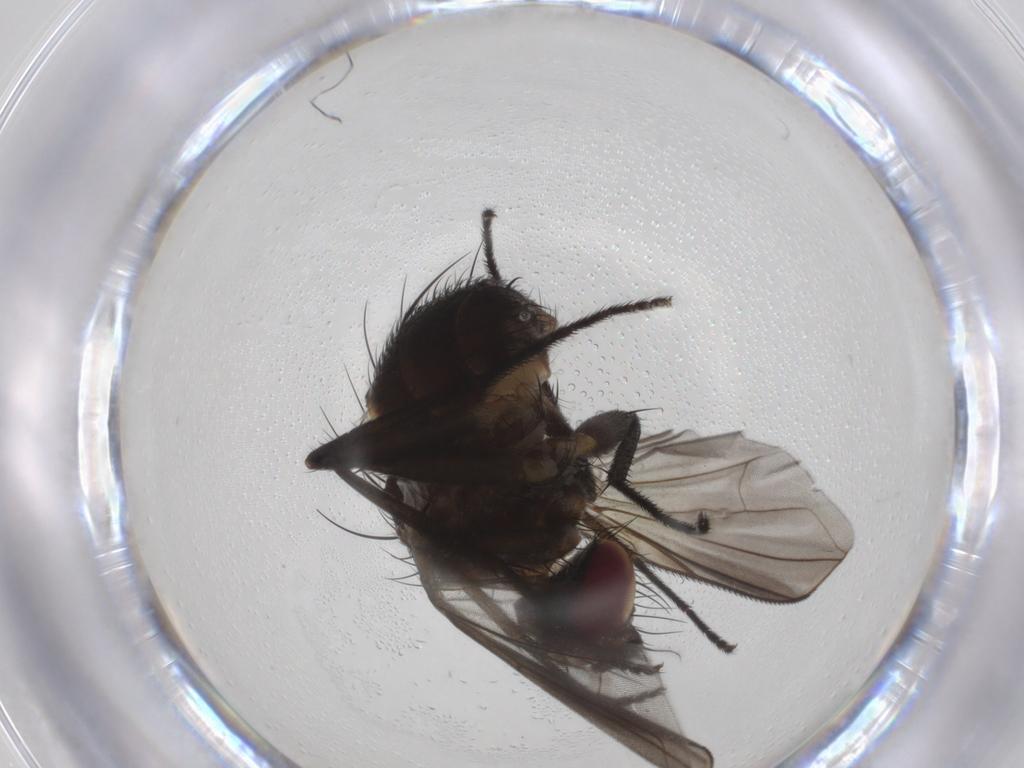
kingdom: Animalia
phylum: Arthropoda
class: Insecta
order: Diptera
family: Tachinidae
